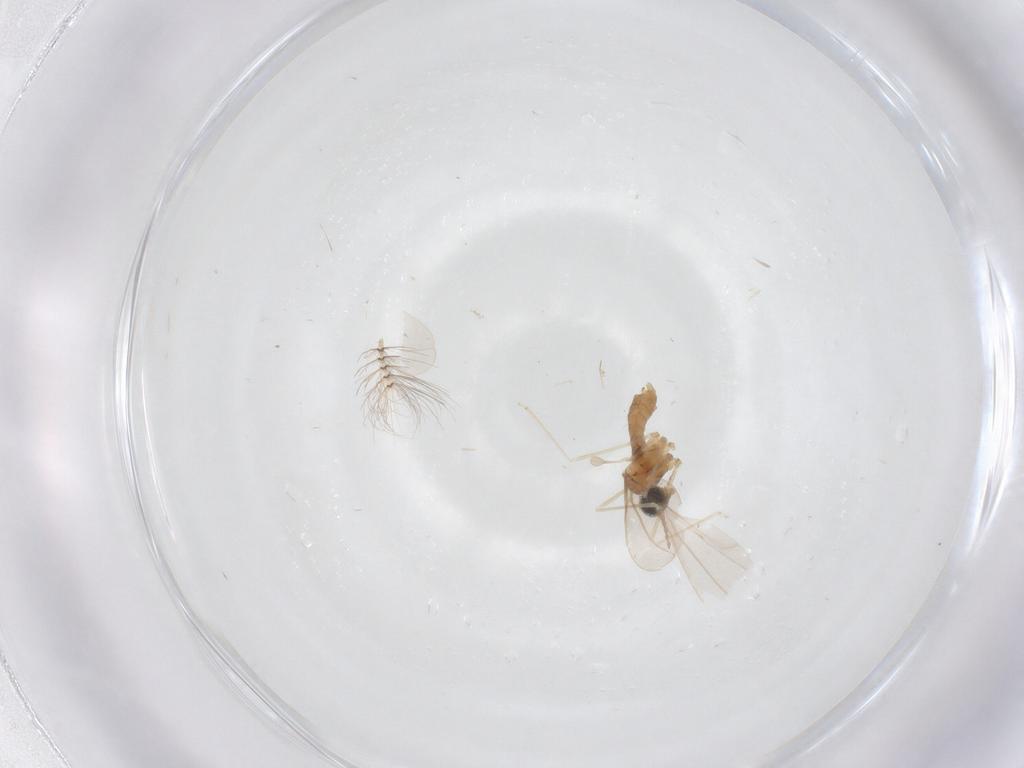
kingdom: Animalia
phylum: Arthropoda
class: Insecta
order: Diptera
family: Cecidomyiidae
